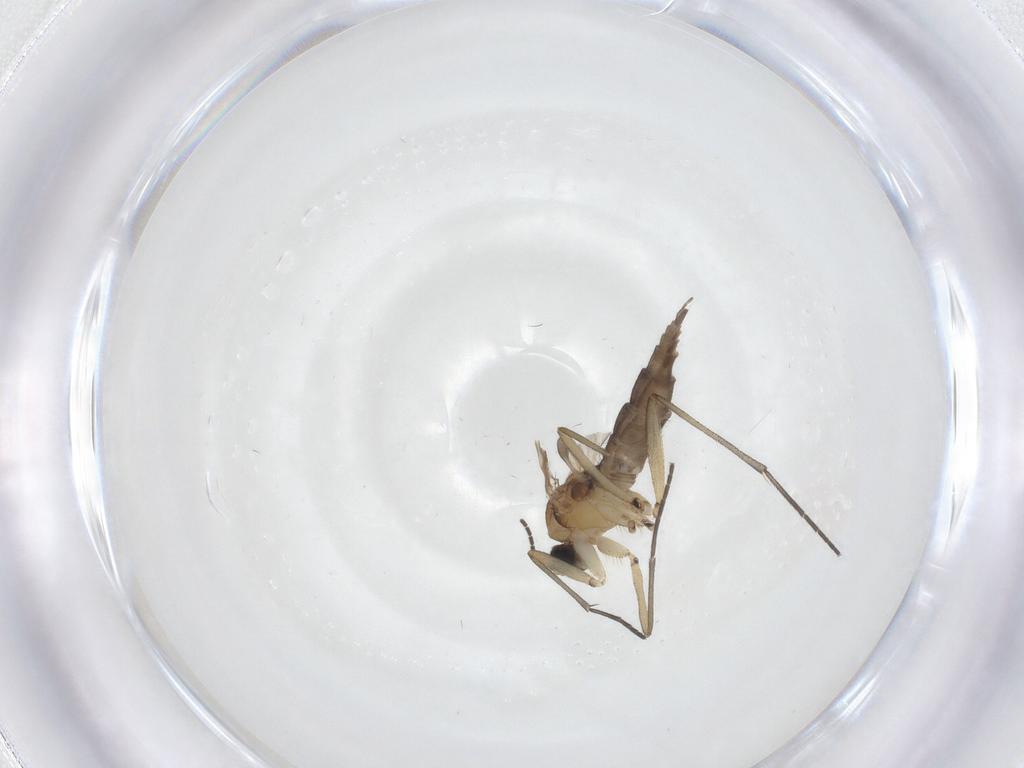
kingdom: Animalia
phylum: Arthropoda
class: Insecta
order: Diptera
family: Sciaridae
